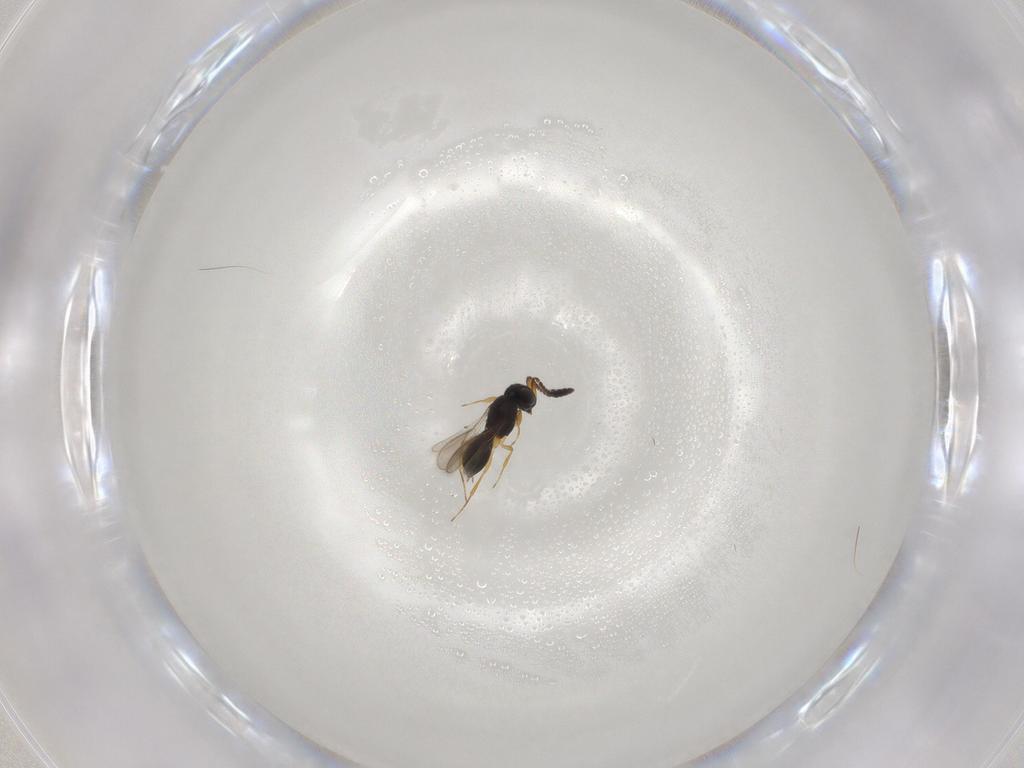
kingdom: Animalia
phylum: Arthropoda
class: Insecta
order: Hymenoptera
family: Scelionidae
